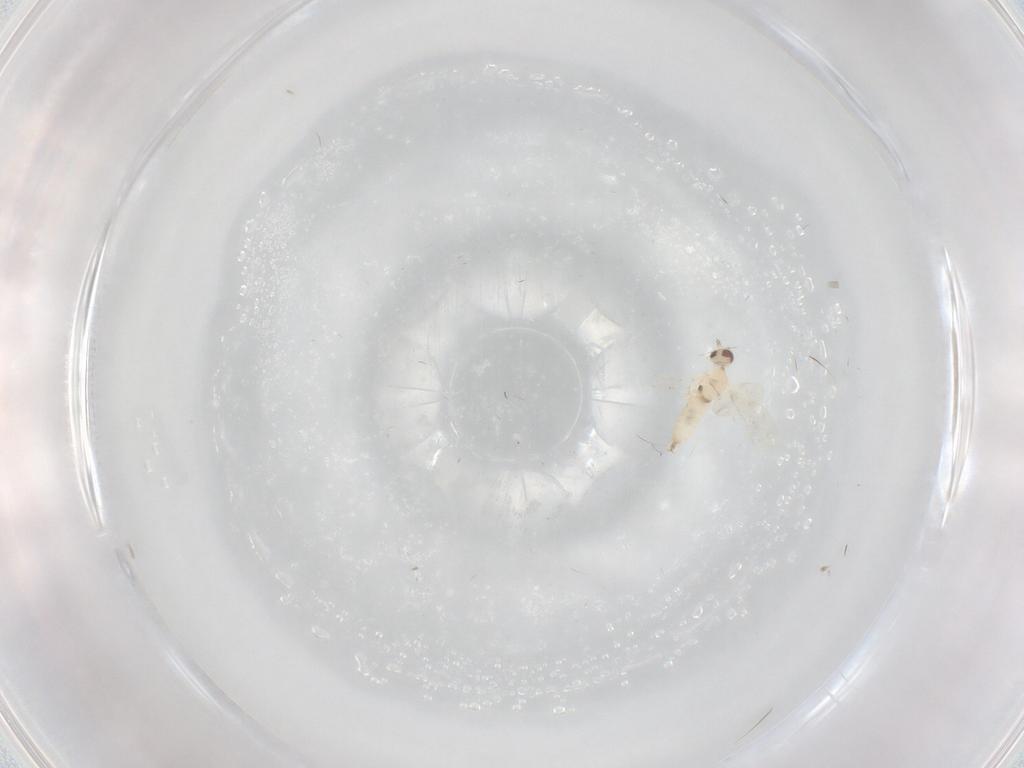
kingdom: Animalia
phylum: Arthropoda
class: Insecta
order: Diptera
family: Cecidomyiidae
